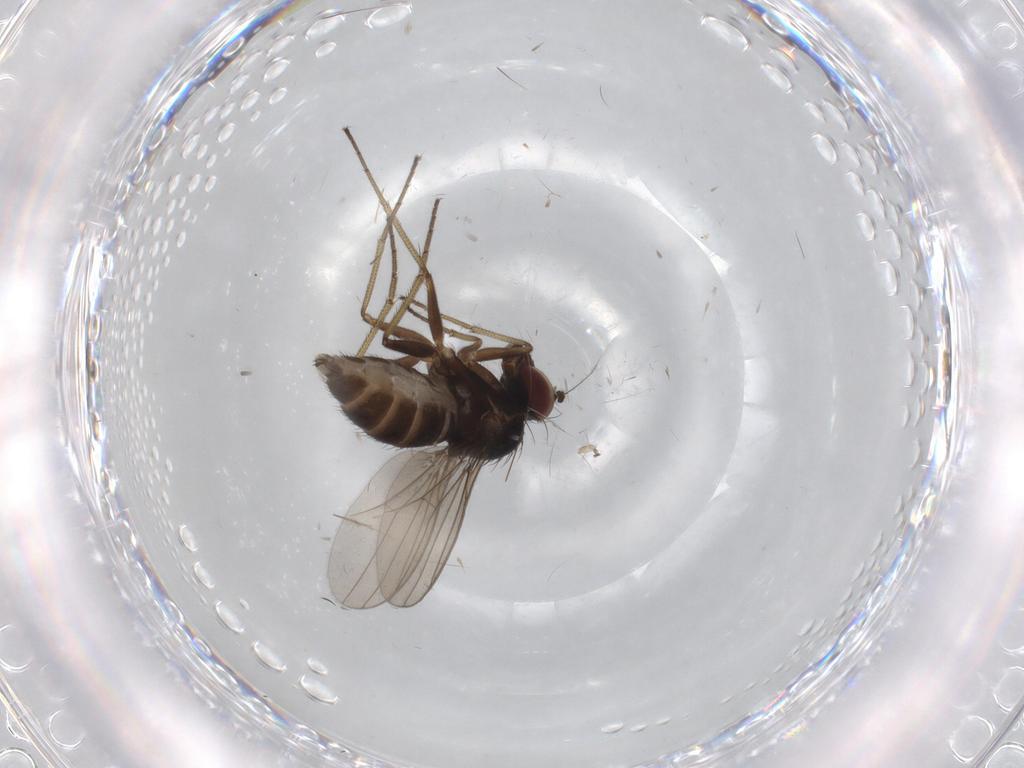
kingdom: Animalia
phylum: Arthropoda
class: Insecta
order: Diptera
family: Dolichopodidae
